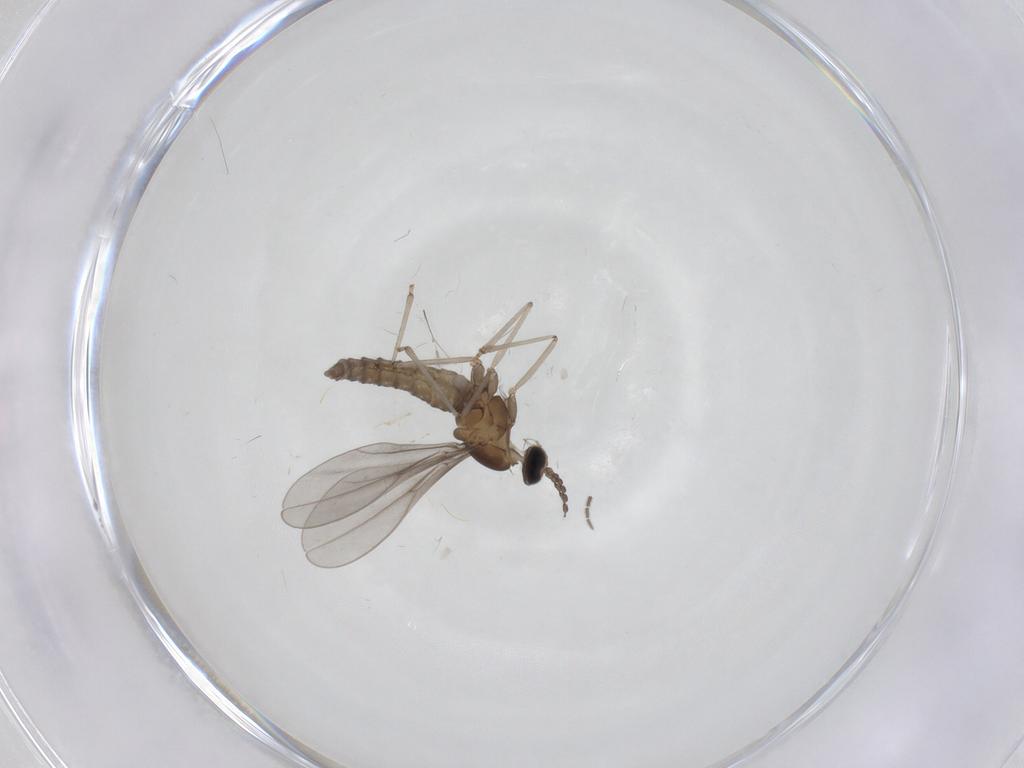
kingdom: Animalia
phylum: Arthropoda
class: Insecta
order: Diptera
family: Cecidomyiidae
